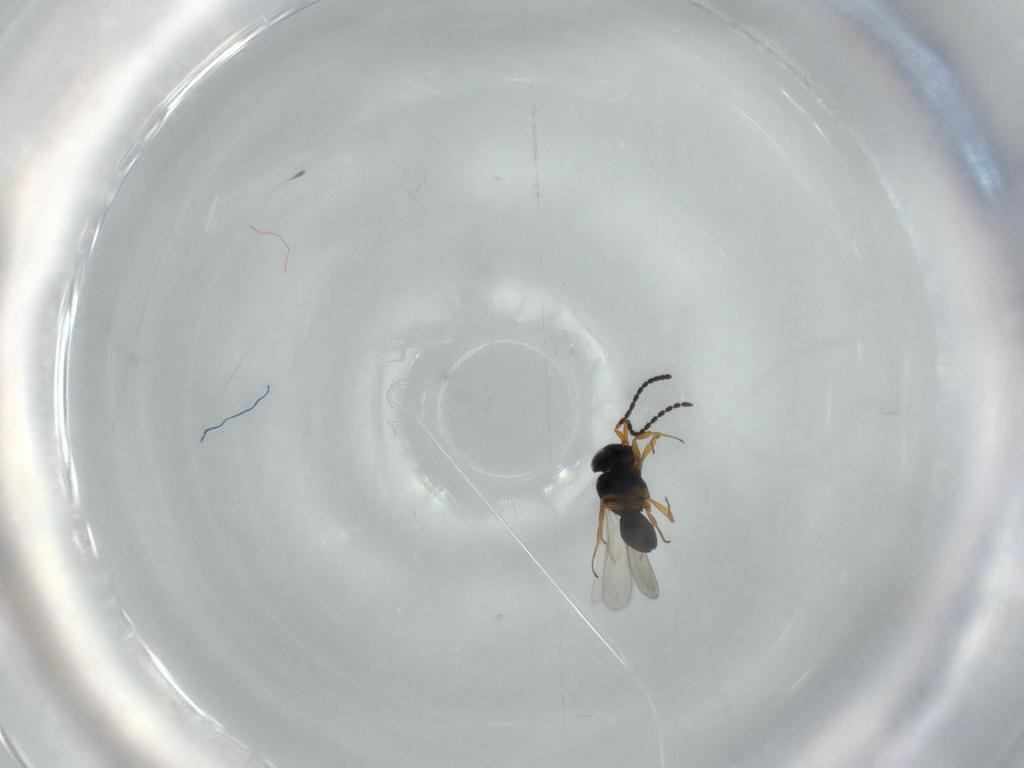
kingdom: Animalia
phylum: Arthropoda
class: Insecta
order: Hymenoptera
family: Scelionidae
